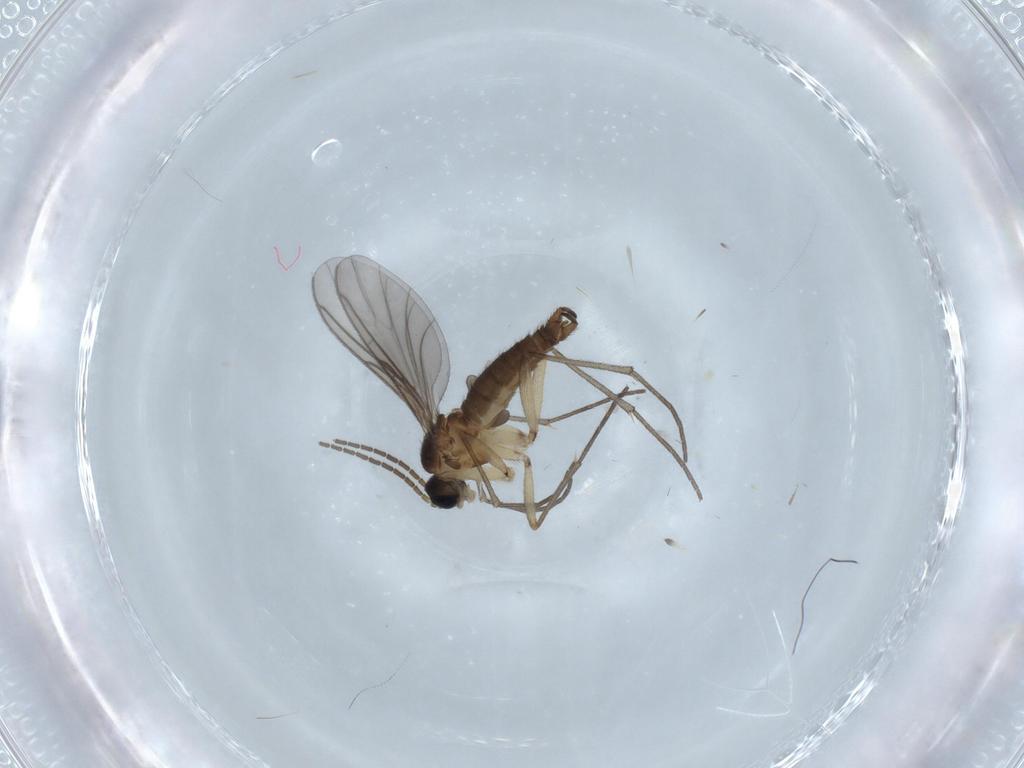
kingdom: Animalia
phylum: Arthropoda
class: Insecta
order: Diptera
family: Sciaridae
